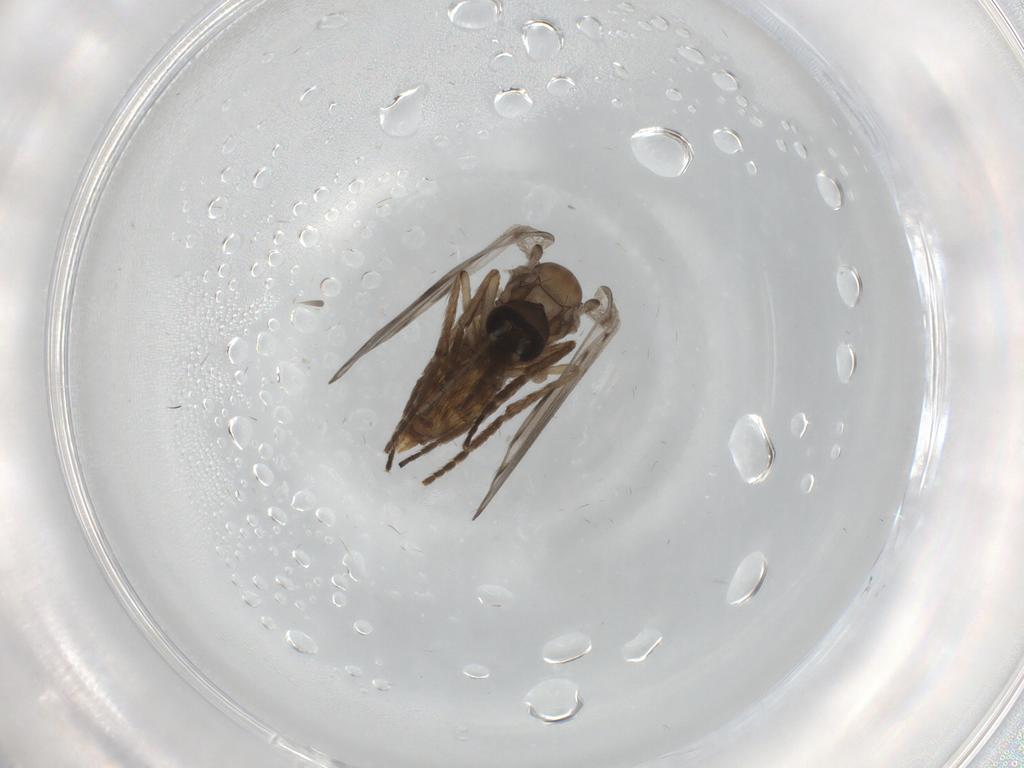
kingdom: Animalia
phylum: Arthropoda
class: Insecta
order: Diptera
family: Psychodidae
